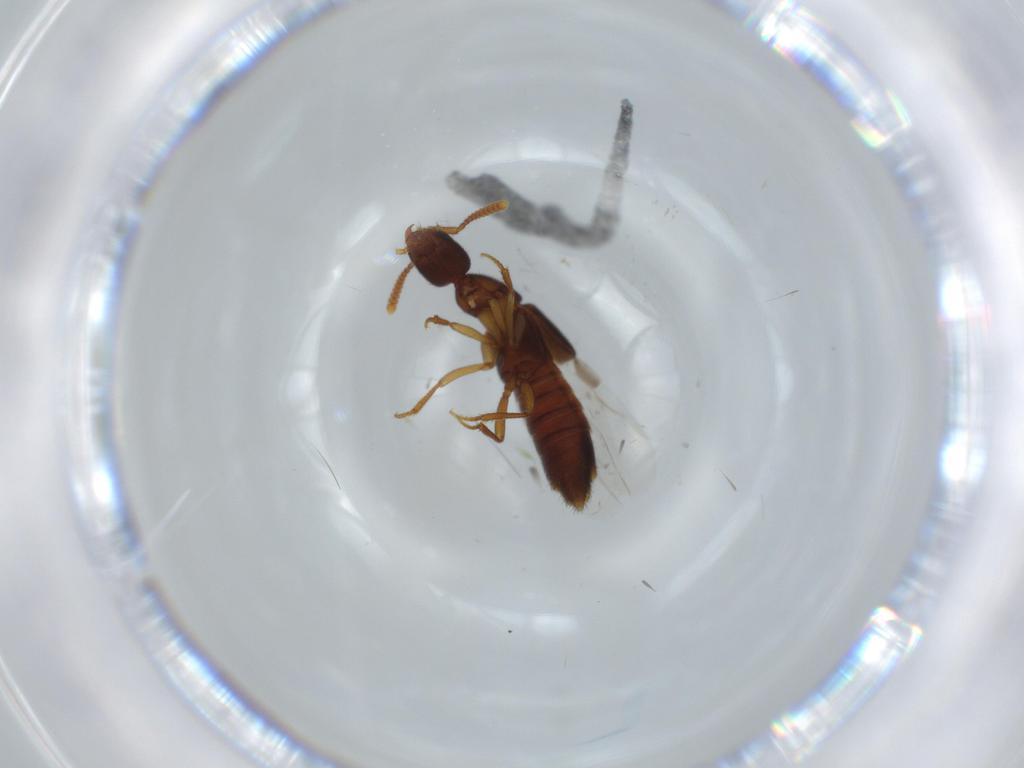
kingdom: Animalia
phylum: Arthropoda
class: Insecta
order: Coleoptera
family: Staphylinidae
